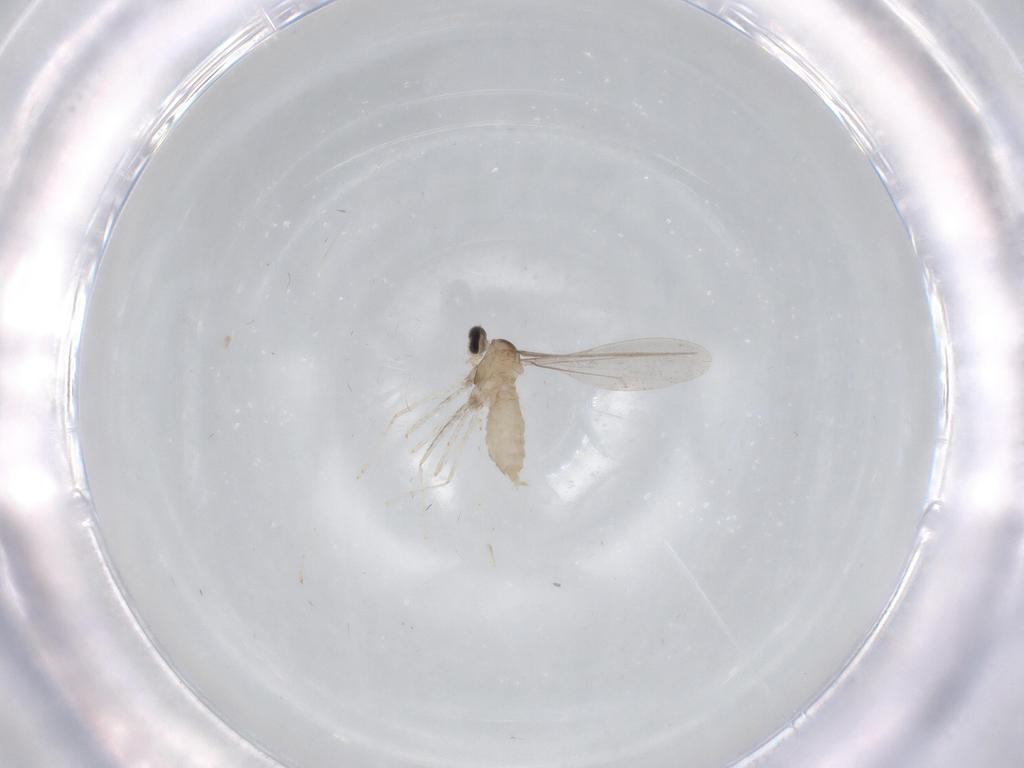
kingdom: Animalia
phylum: Arthropoda
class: Insecta
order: Diptera
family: Cecidomyiidae
